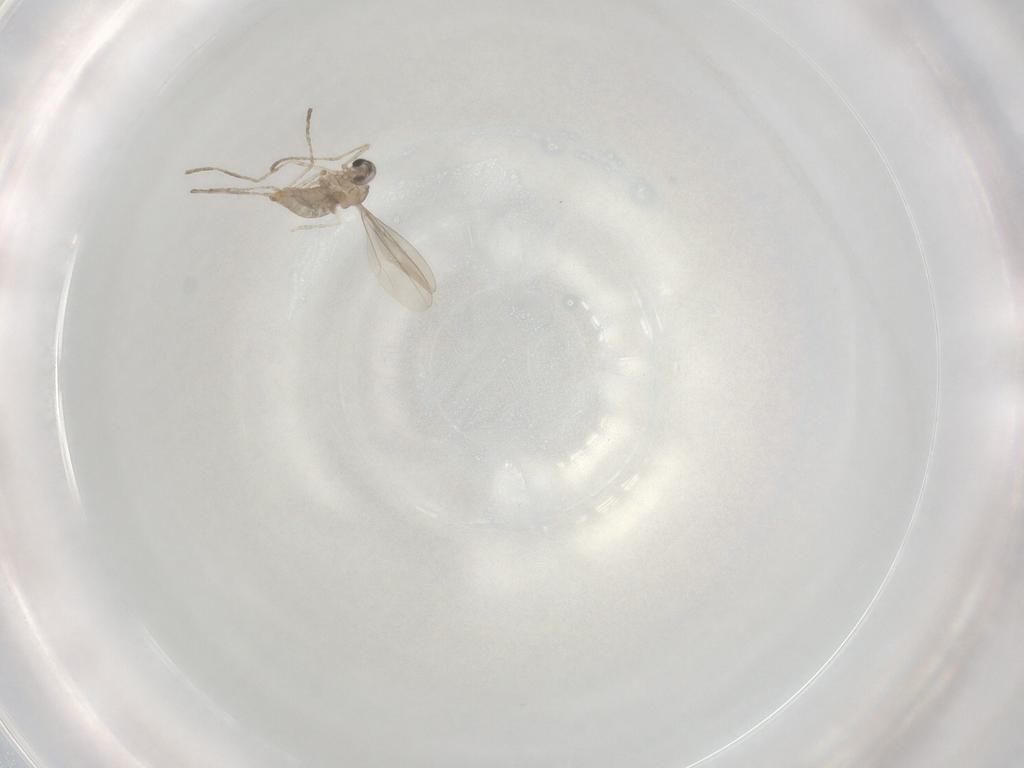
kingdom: Animalia
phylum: Arthropoda
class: Insecta
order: Diptera
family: Cecidomyiidae
